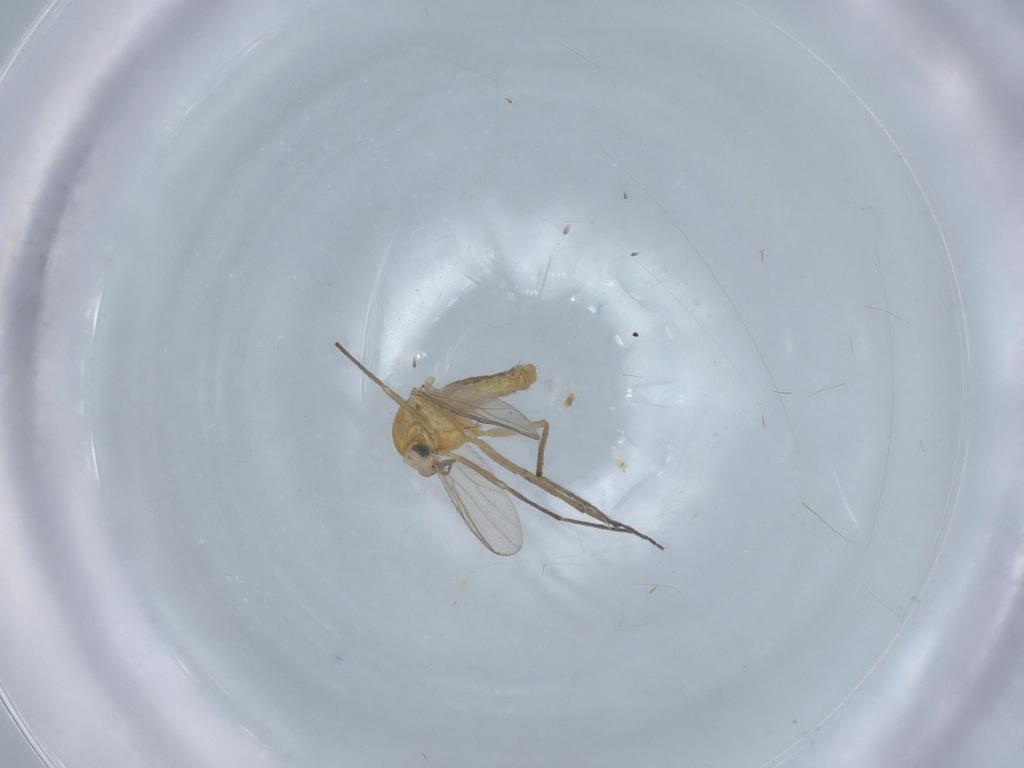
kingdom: Animalia
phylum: Arthropoda
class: Insecta
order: Diptera
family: Chironomidae
